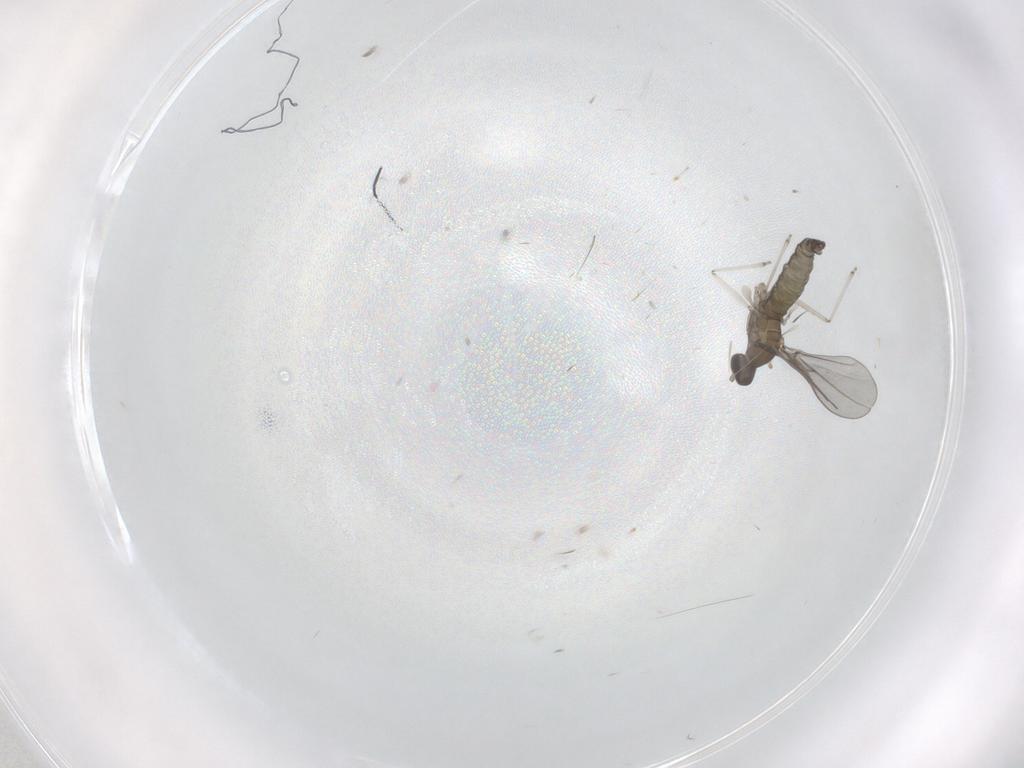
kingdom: Animalia
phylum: Arthropoda
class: Insecta
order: Diptera
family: Cecidomyiidae
